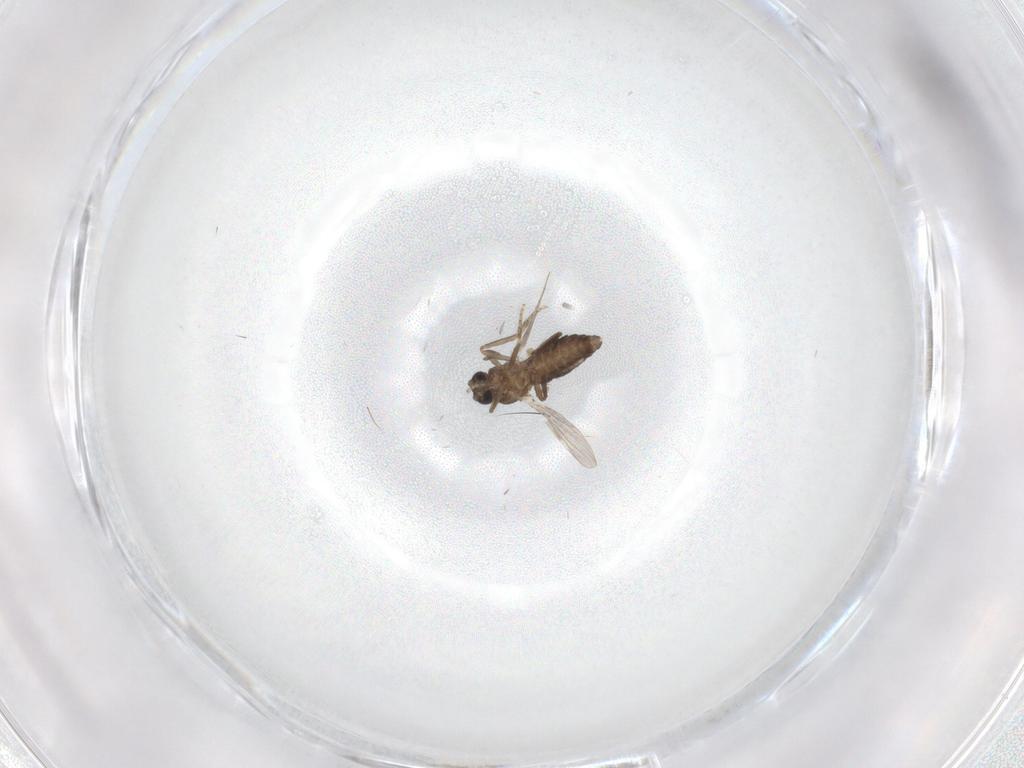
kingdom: Animalia
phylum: Arthropoda
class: Insecta
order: Diptera
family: Ceratopogonidae
